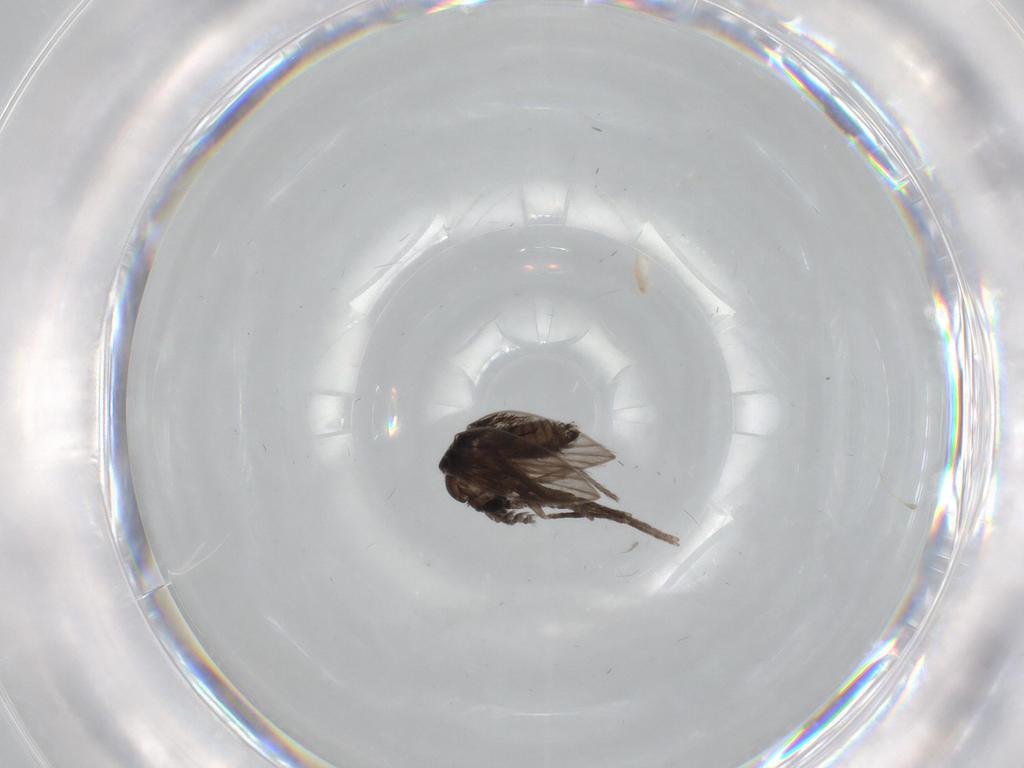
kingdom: Animalia
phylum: Arthropoda
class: Insecta
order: Diptera
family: Psychodidae
